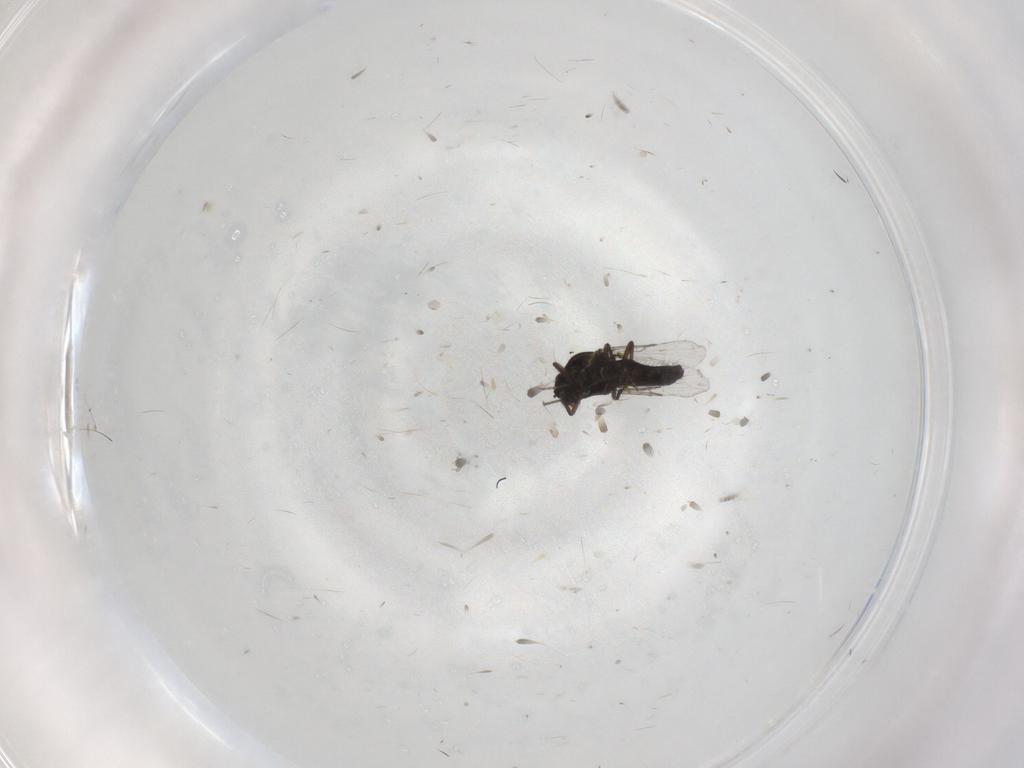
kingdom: Animalia
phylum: Arthropoda
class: Insecta
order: Diptera
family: Ceratopogonidae
